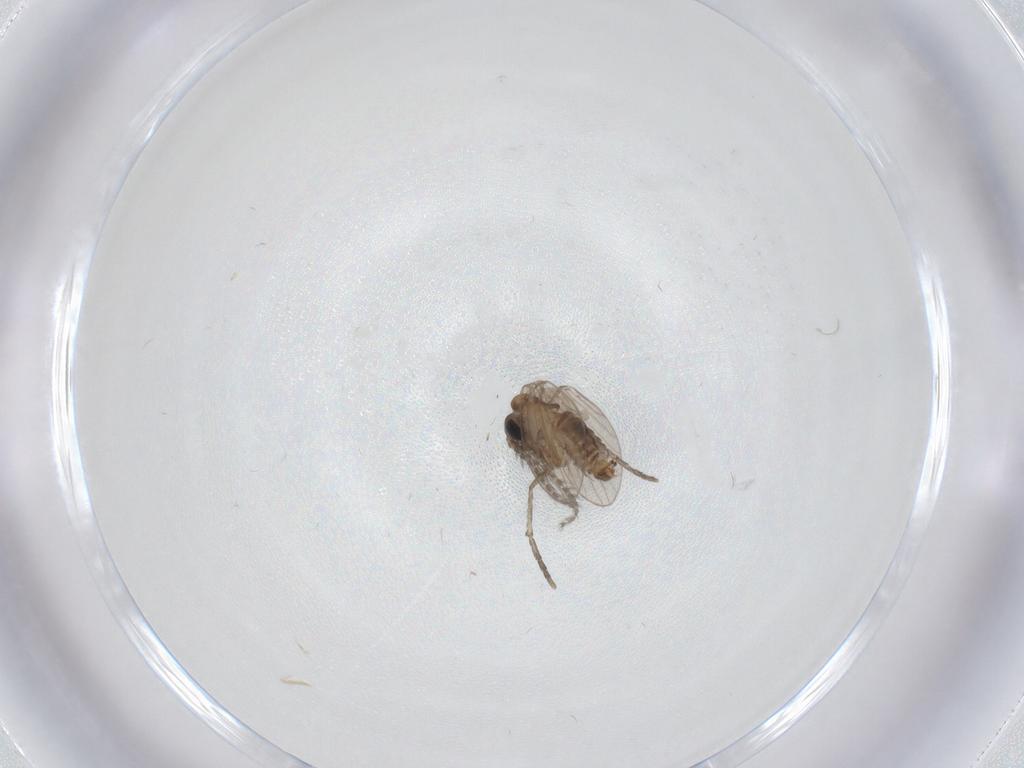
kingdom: Animalia
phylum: Arthropoda
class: Insecta
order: Diptera
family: Psychodidae
